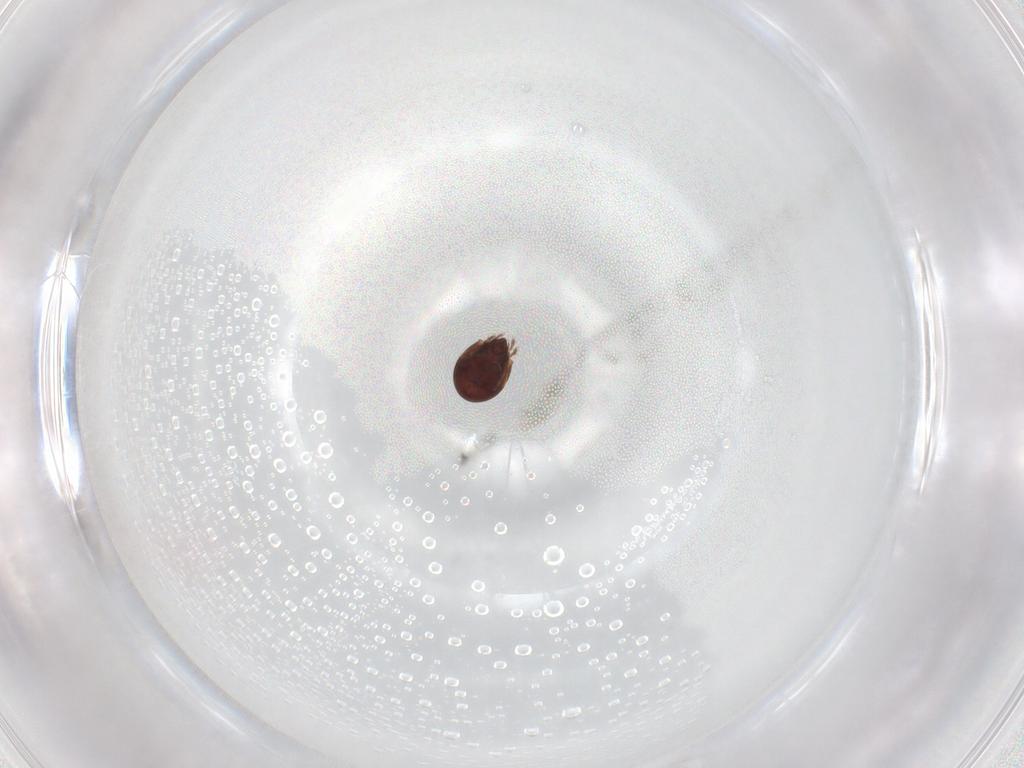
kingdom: Animalia
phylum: Arthropoda
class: Arachnida
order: Sarcoptiformes
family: Humerobatidae
